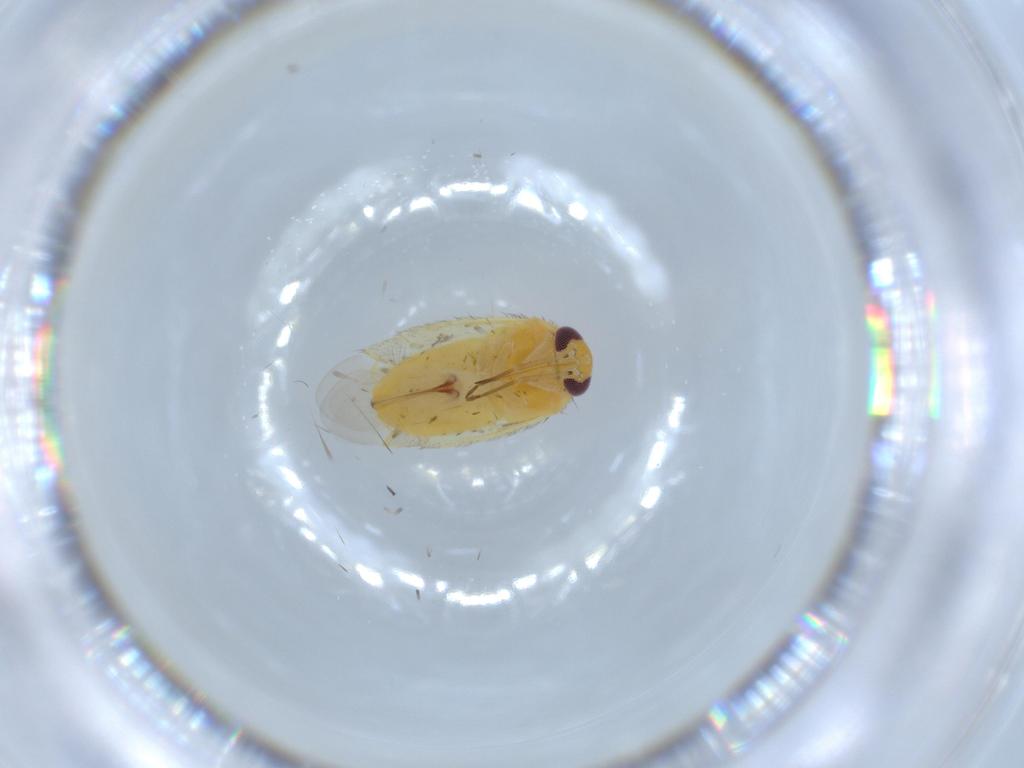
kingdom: Animalia
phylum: Arthropoda
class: Insecta
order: Hemiptera
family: Miridae
